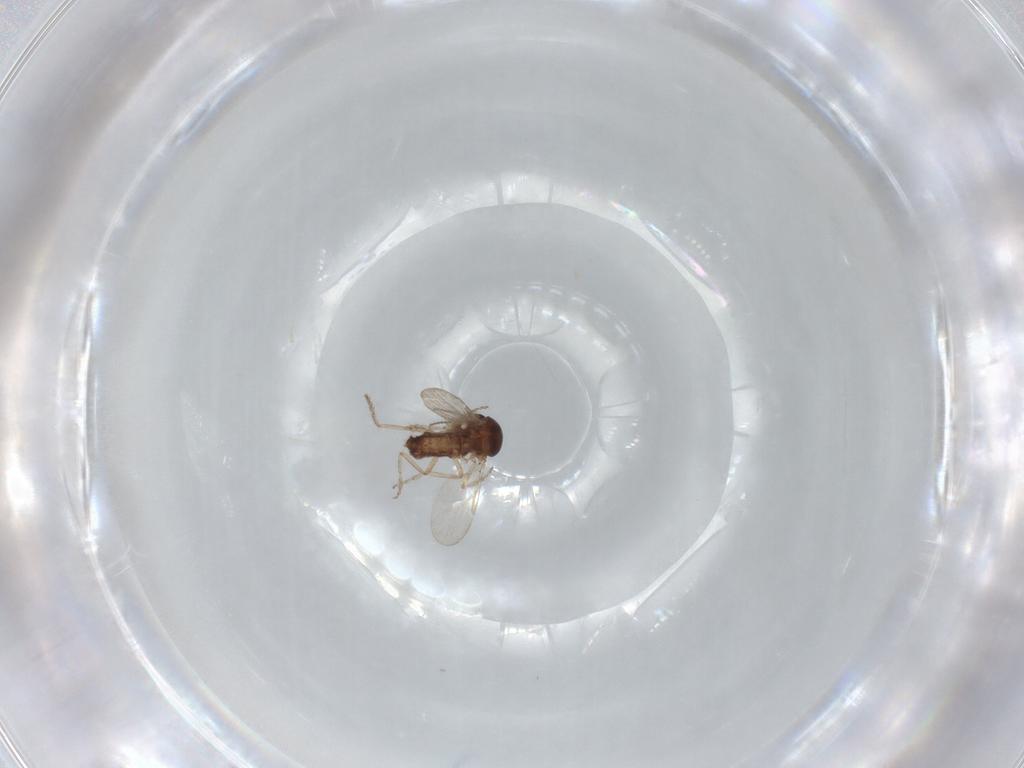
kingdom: Animalia
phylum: Arthropoda
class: Insecta
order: Diptera
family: Ceratopogonidae
